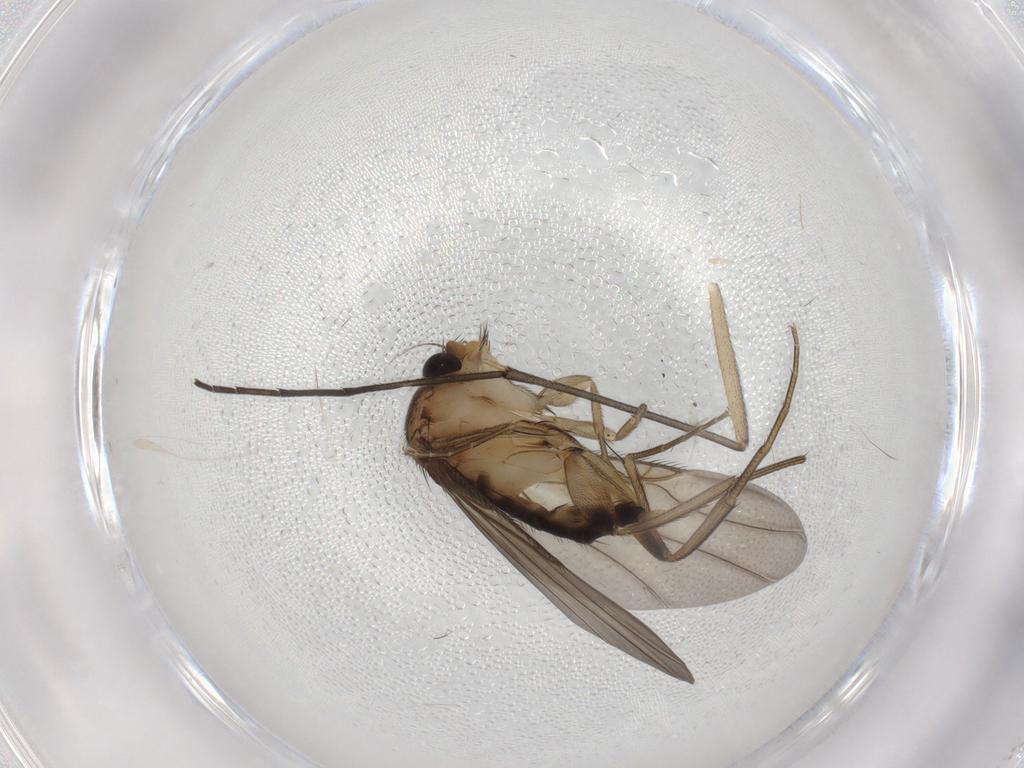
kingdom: Animalia
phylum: Arthropoda
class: Insecta
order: Diptera
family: Phoridae
